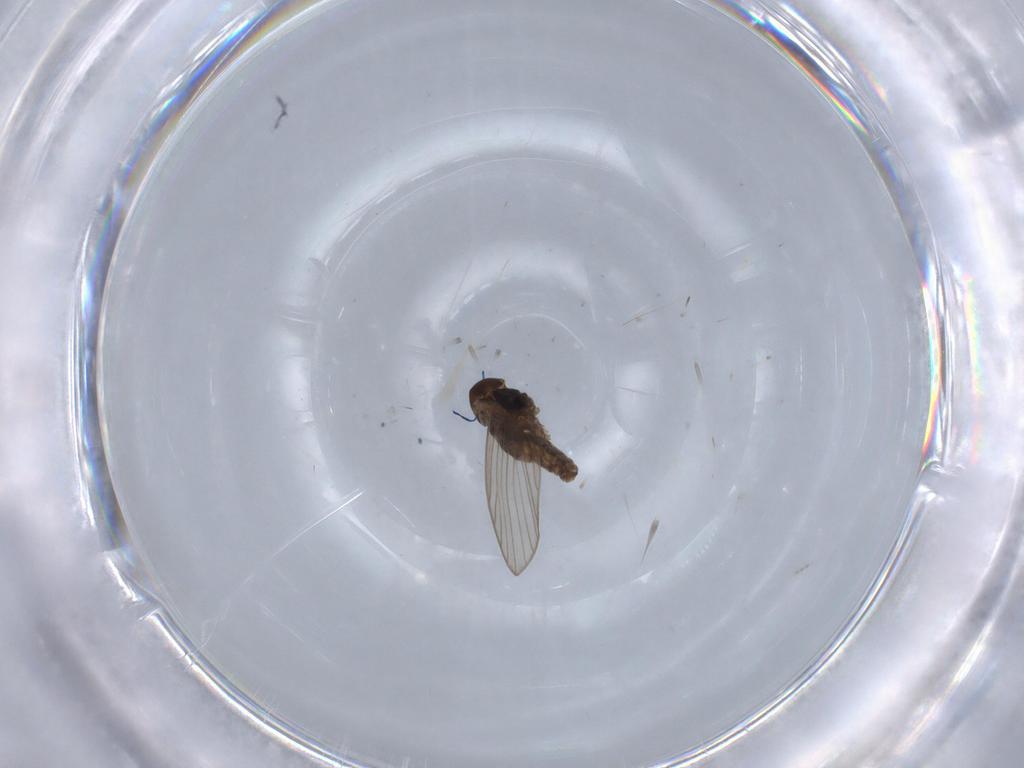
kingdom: Animalia
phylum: Arthropoda
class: Insecta
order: Diptera
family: Psychodidae
